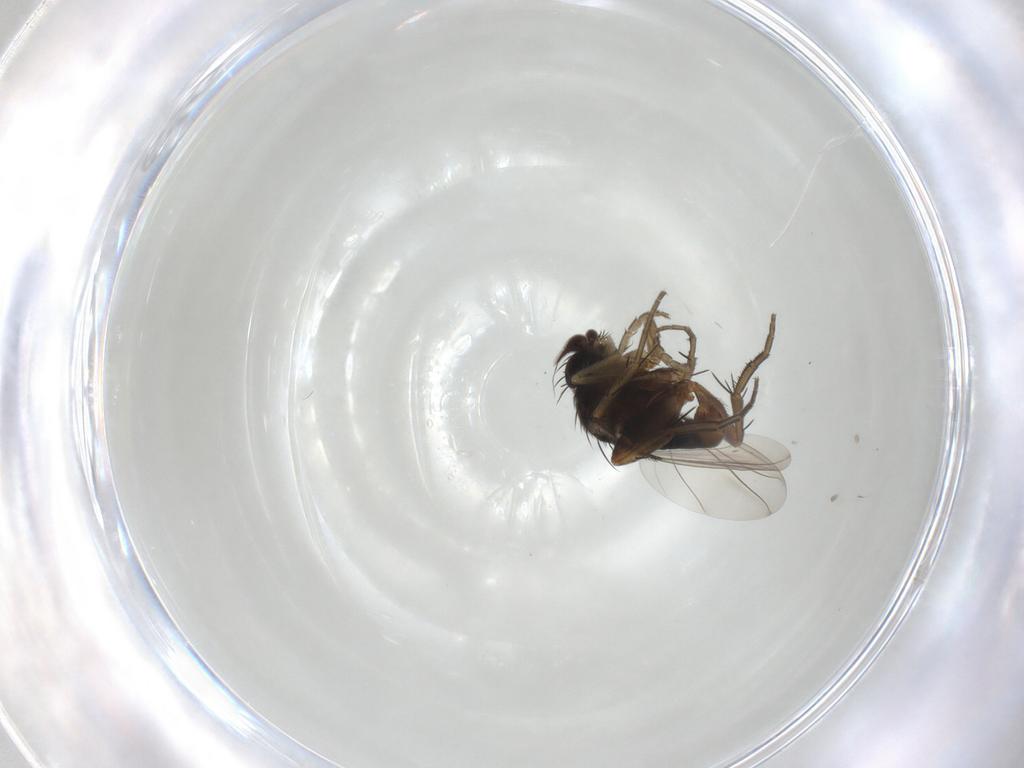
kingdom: Animalia
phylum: Arthropoda
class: Insecta
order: Diptera
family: Phoridae
